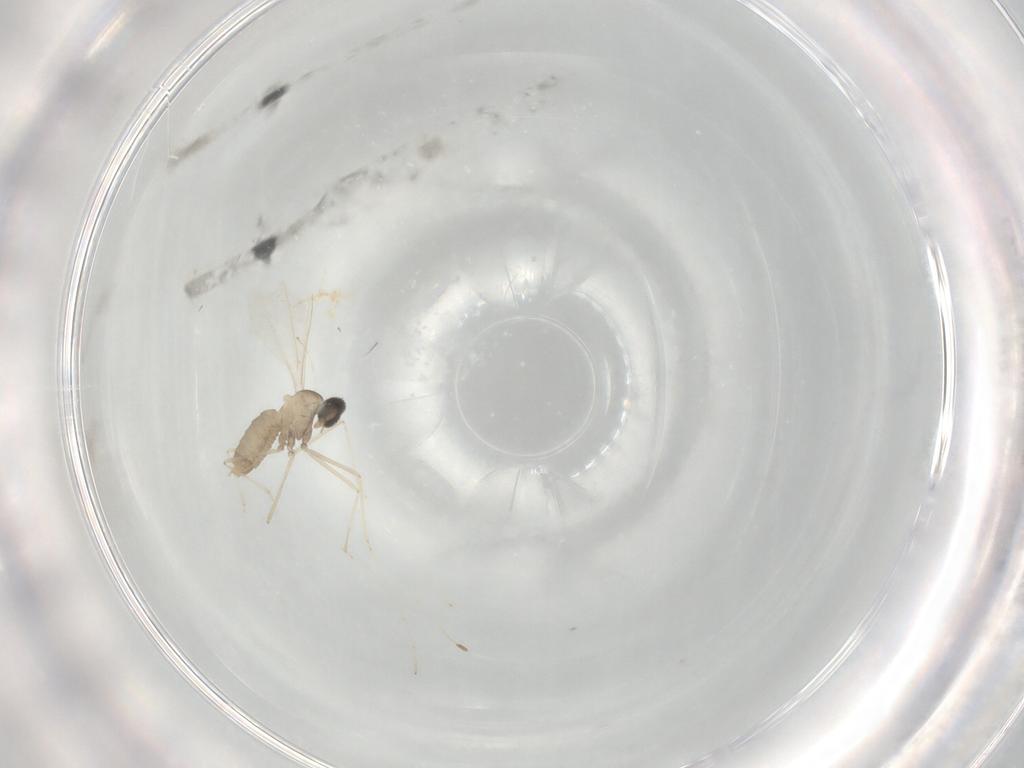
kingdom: Animalia
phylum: Arthropoda
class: Insecta
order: Diptera
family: Cecidomyiidae
